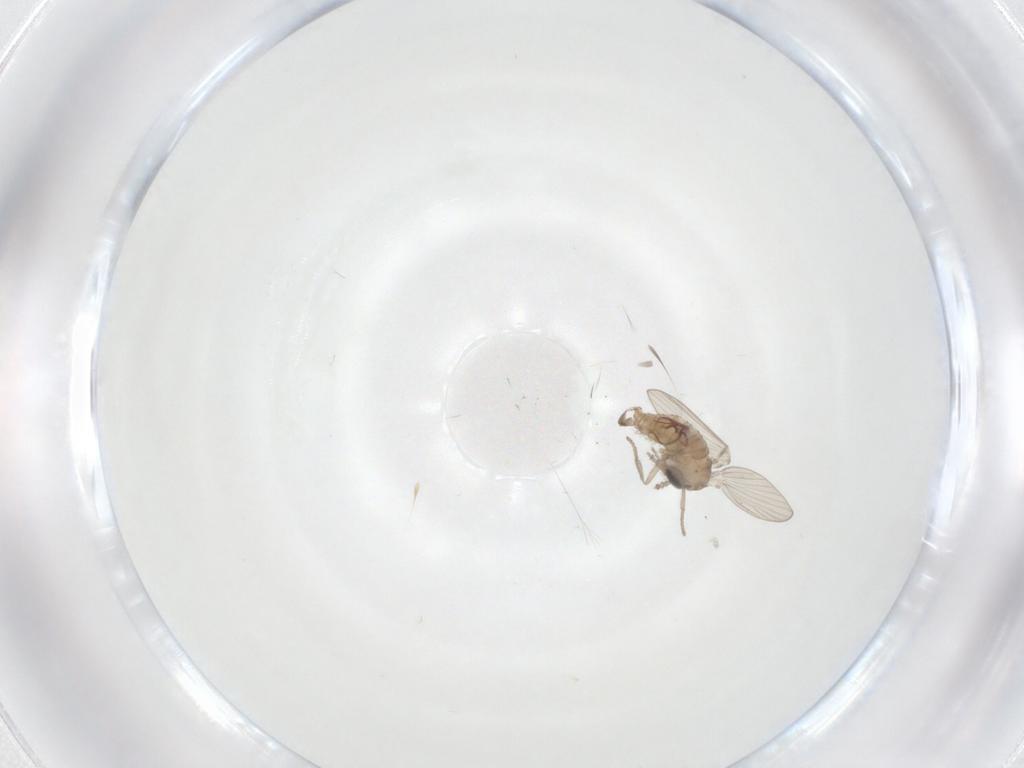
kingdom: Animalia
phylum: Arthropoda
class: Insecta
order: Diptera
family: Psychodidae
